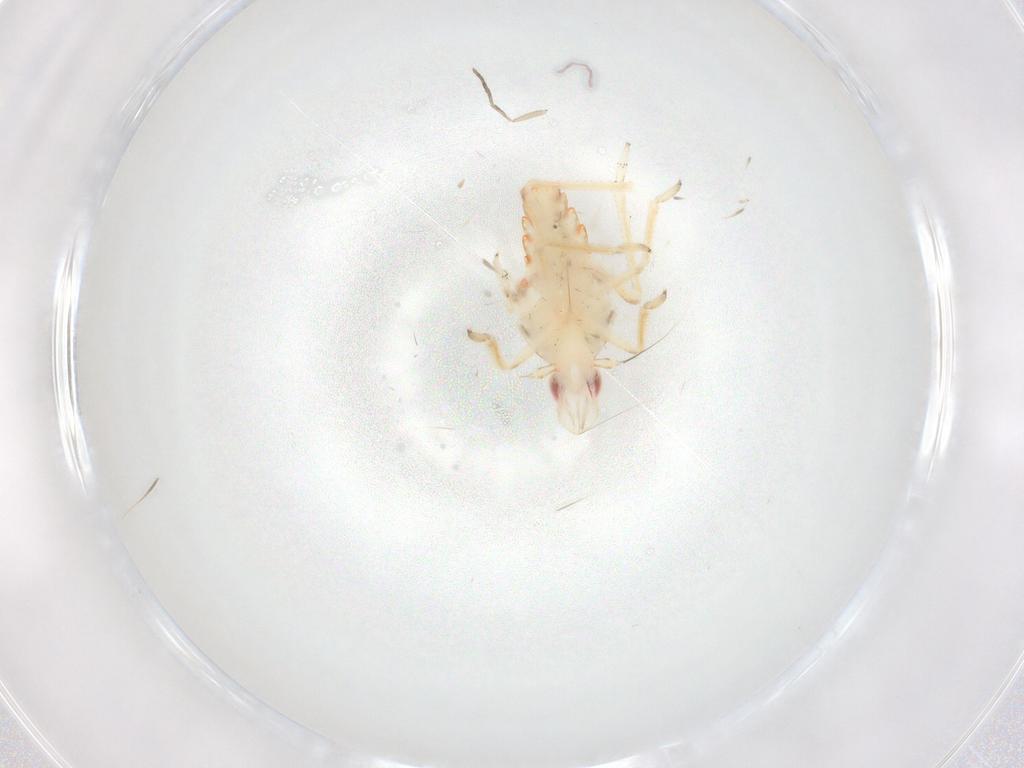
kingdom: Animalia
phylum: Arthropoda
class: Insecta
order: Hemiptera
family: Tropiduchidae
